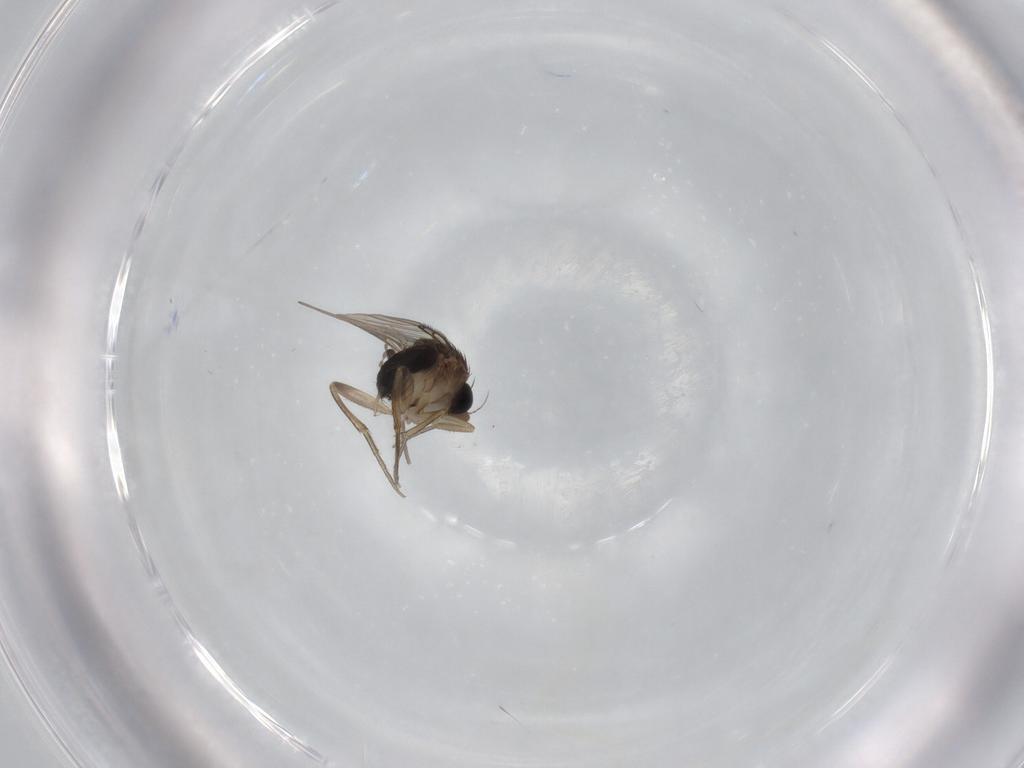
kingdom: Animalia
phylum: Arthropoda
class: Insecta
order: Diptera
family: Phoridae
